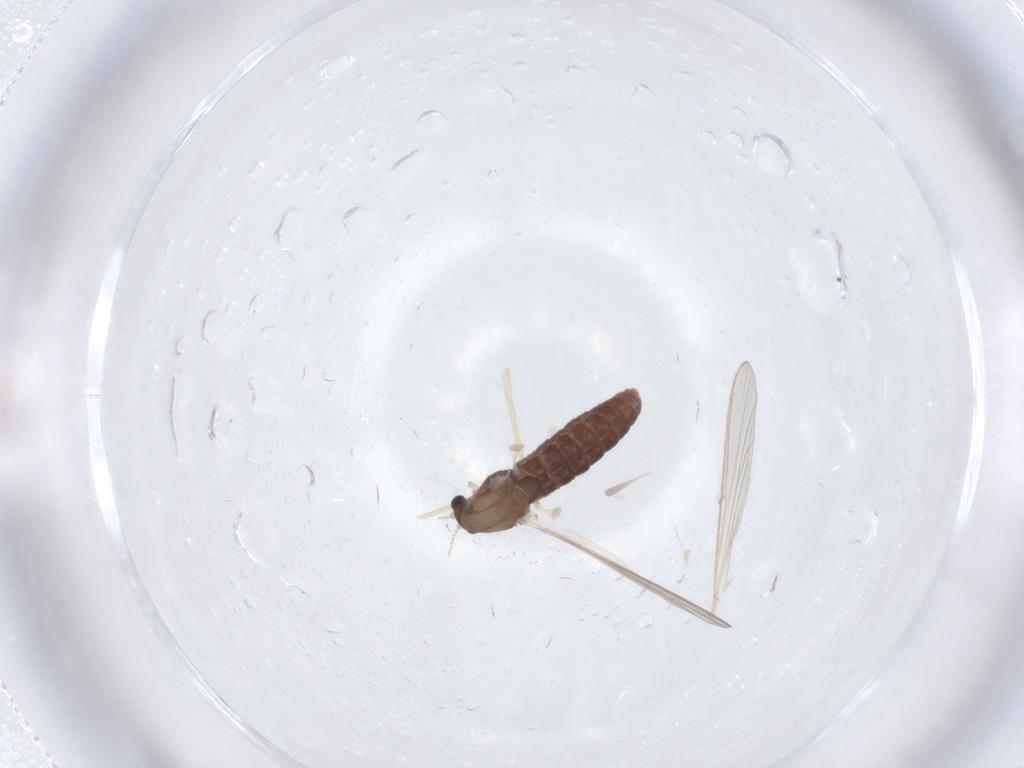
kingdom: Animalia
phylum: Arthropoda
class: Insecta
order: Diptera
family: Chironomidae
